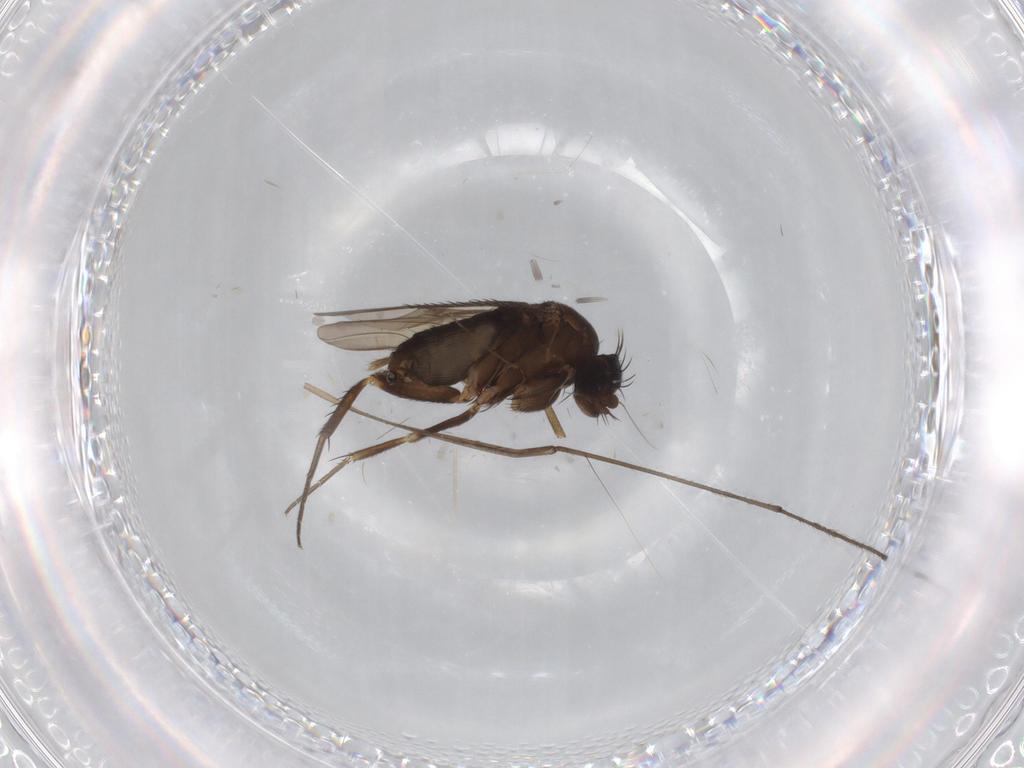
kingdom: Animalia
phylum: Arthropoda
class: Insecta
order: Diptera
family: Phoridae
